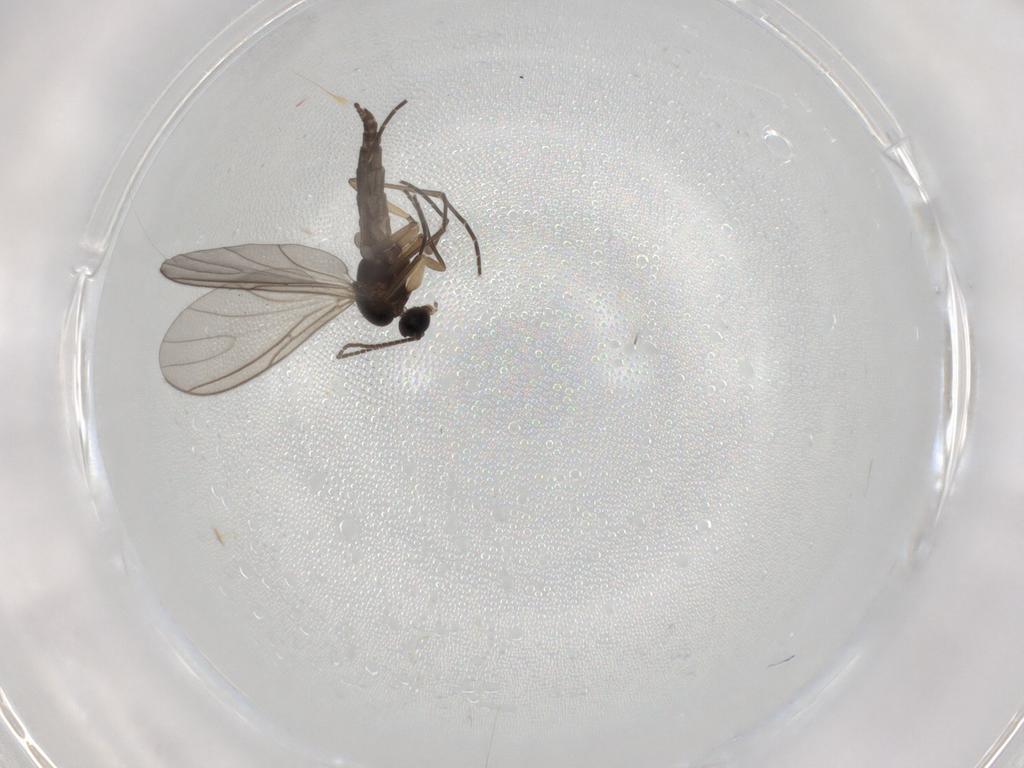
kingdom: Animalia
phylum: Arthropoda
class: Insecta
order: Diptera
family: Sciaridae
